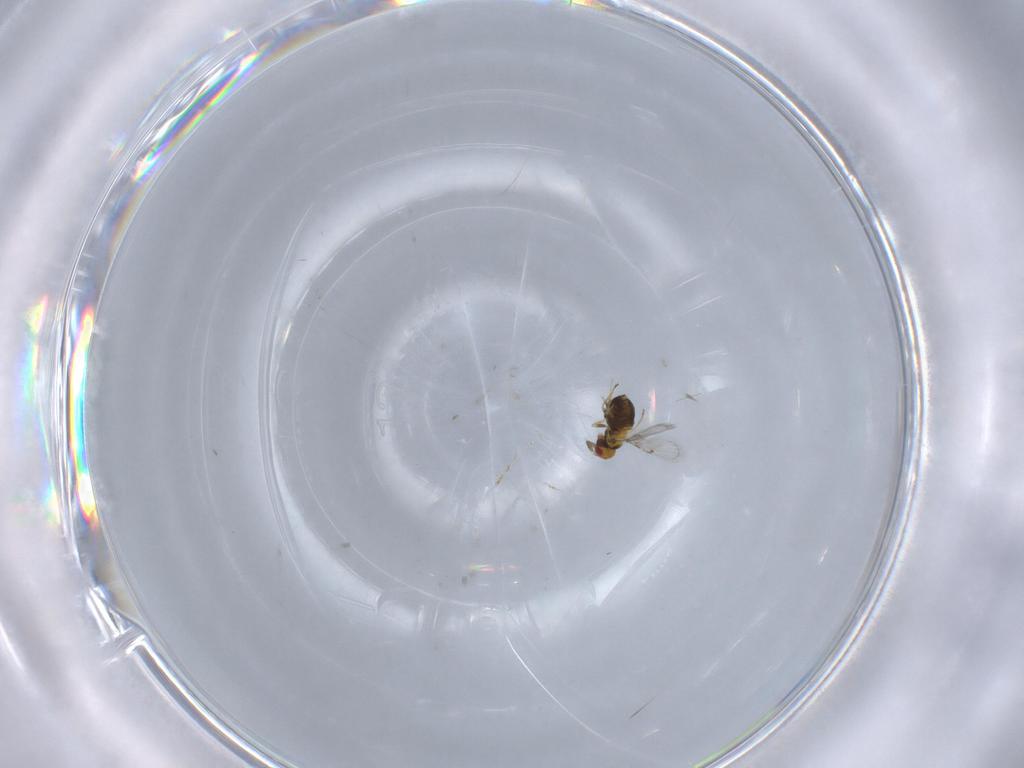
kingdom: Animalia
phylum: Arthropoda
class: Insecta
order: Hymenoptera
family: Trichogrammatidae
